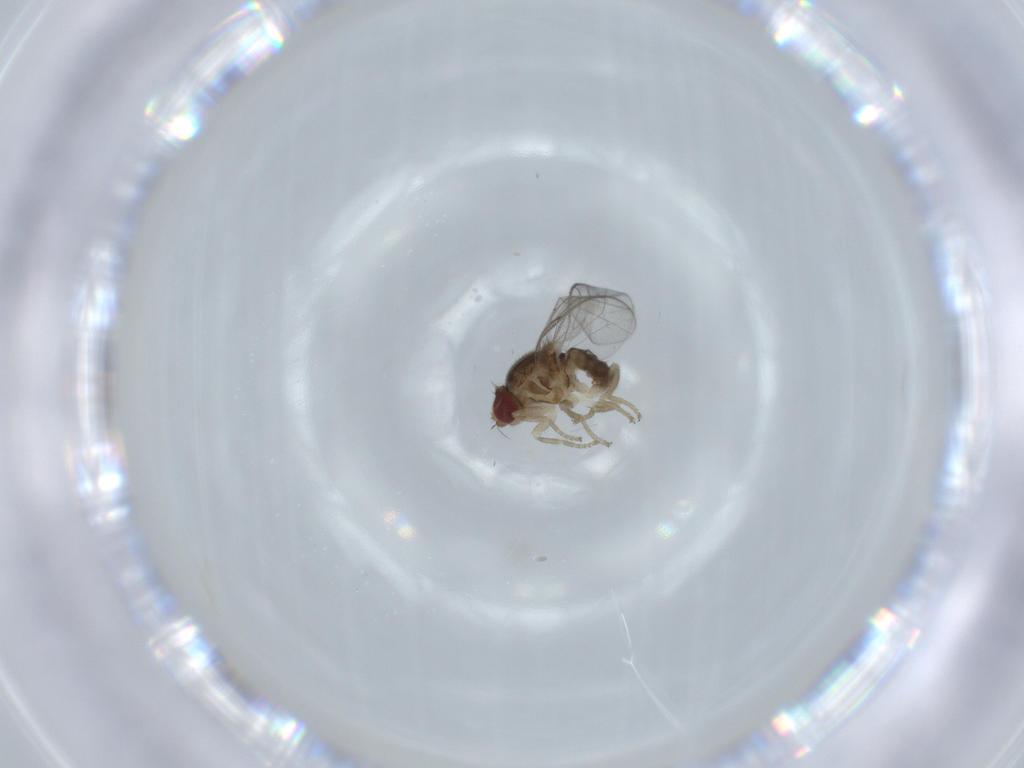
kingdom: Animalia
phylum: Arthropoda
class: Insecta
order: Diptera
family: Chloropidae
